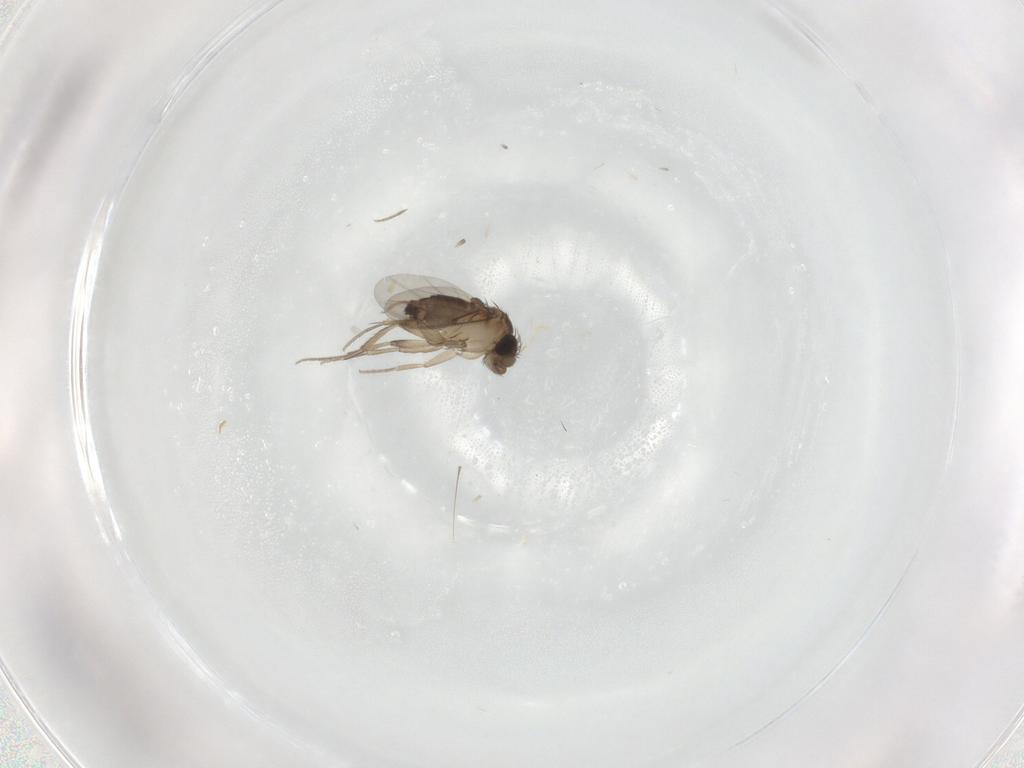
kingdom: Animalia
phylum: Arthropoda
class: Insecta
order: Diptera
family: Phoridae
